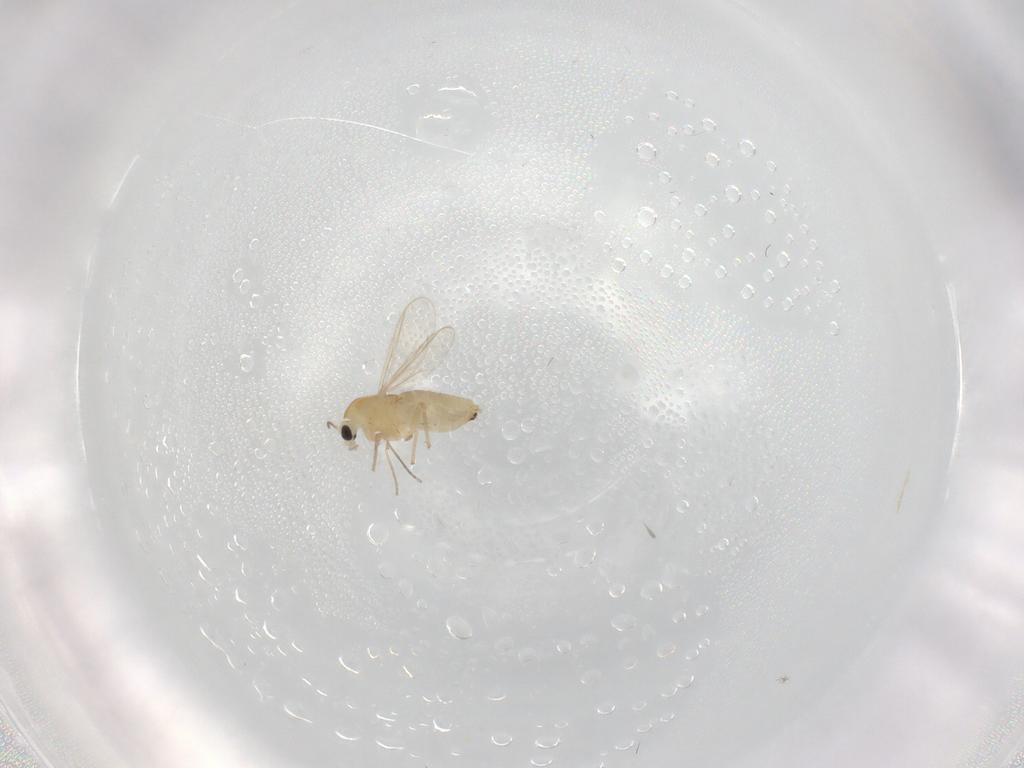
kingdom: Animalia
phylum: Arthropoda
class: Insecta
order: Diptera
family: Chironomidae
